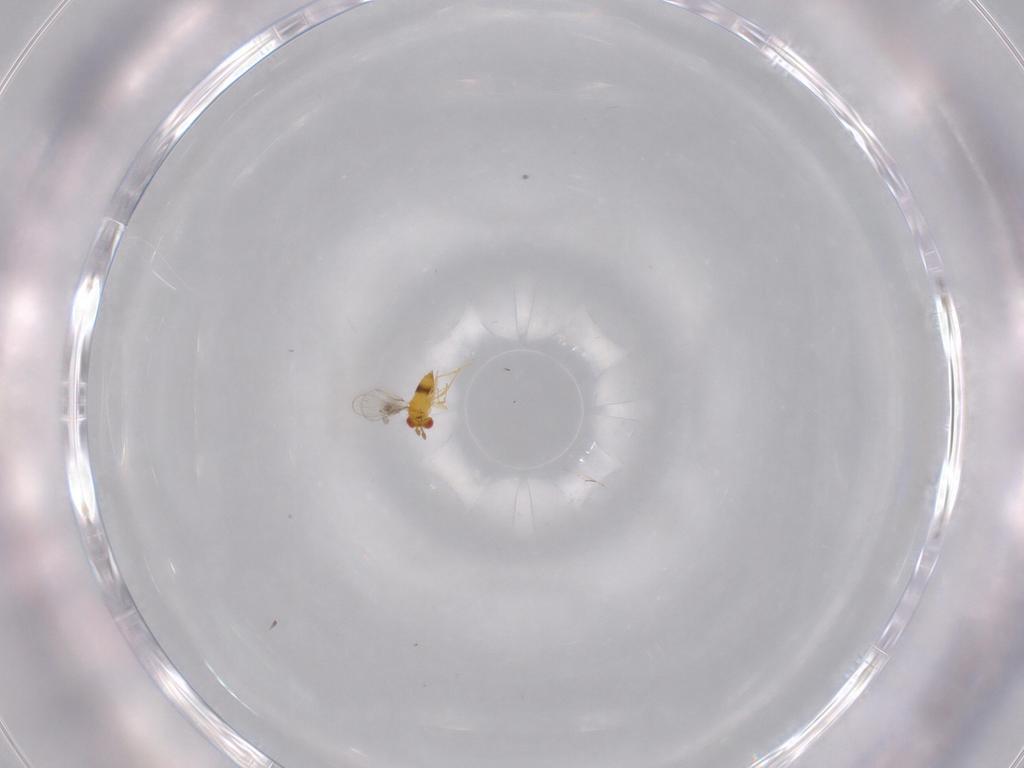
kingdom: Animalia
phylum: Arthropoda
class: Insecta
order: Hymenoptera
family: Trichogrammatidae
